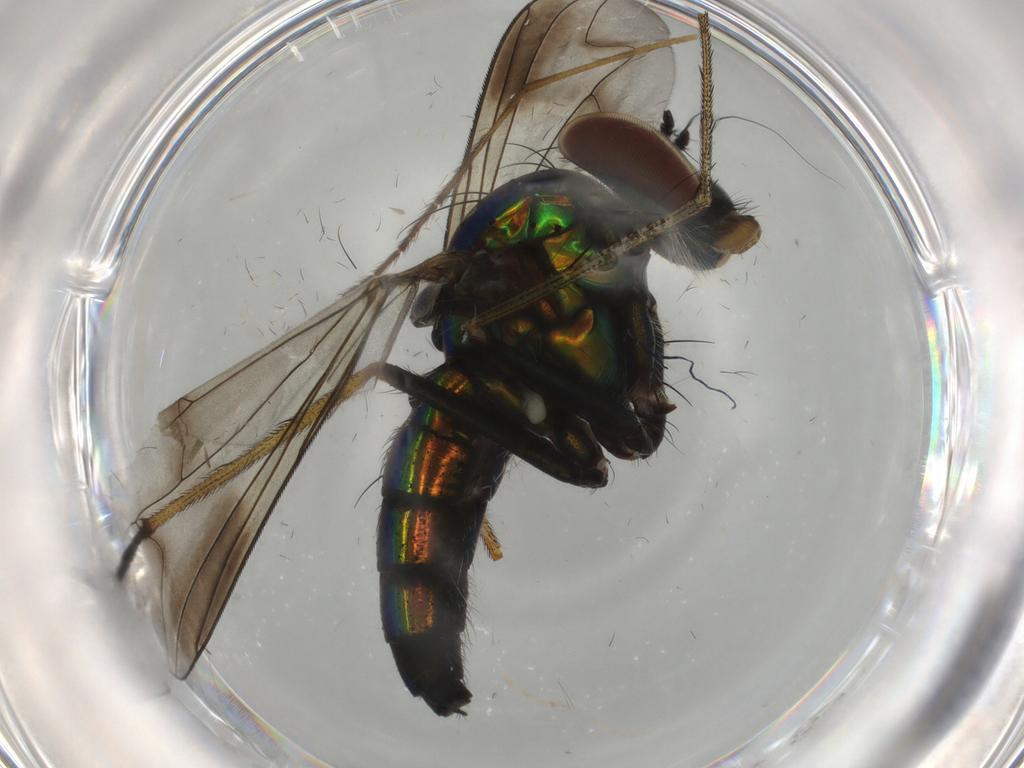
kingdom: Animalia
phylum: Arthropoda
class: Insecta
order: Diptera
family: Dolichopodidae
